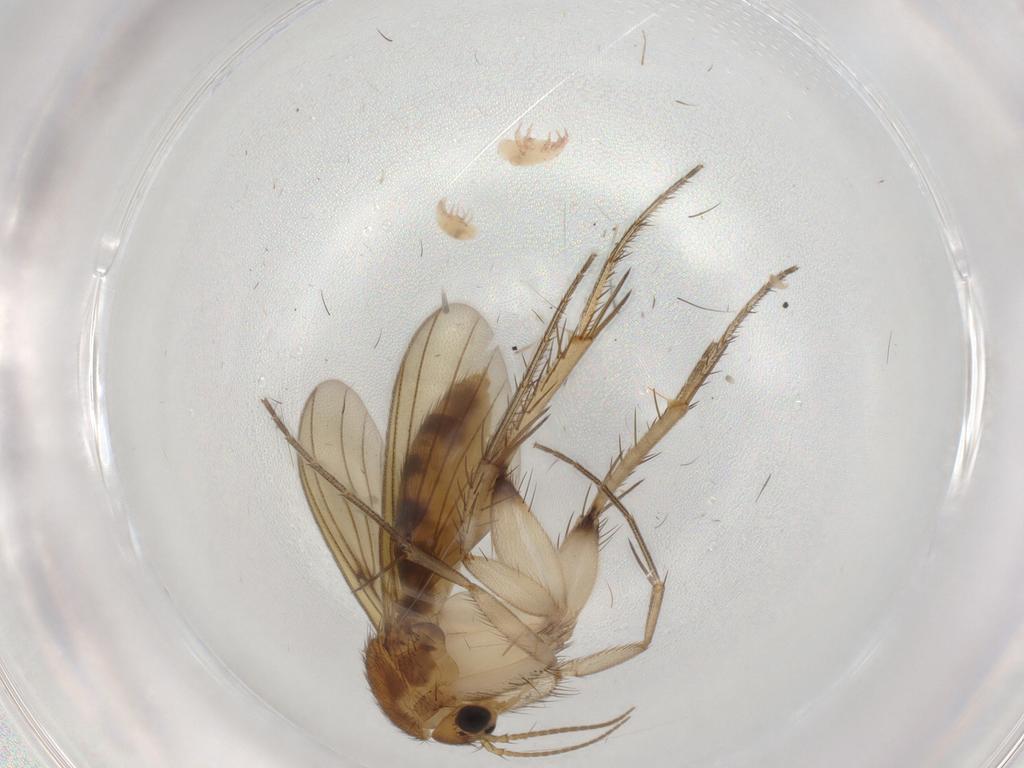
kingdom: Animalia
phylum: Arthropoda
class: Insecta
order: Diptera
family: Mycetophilidae
